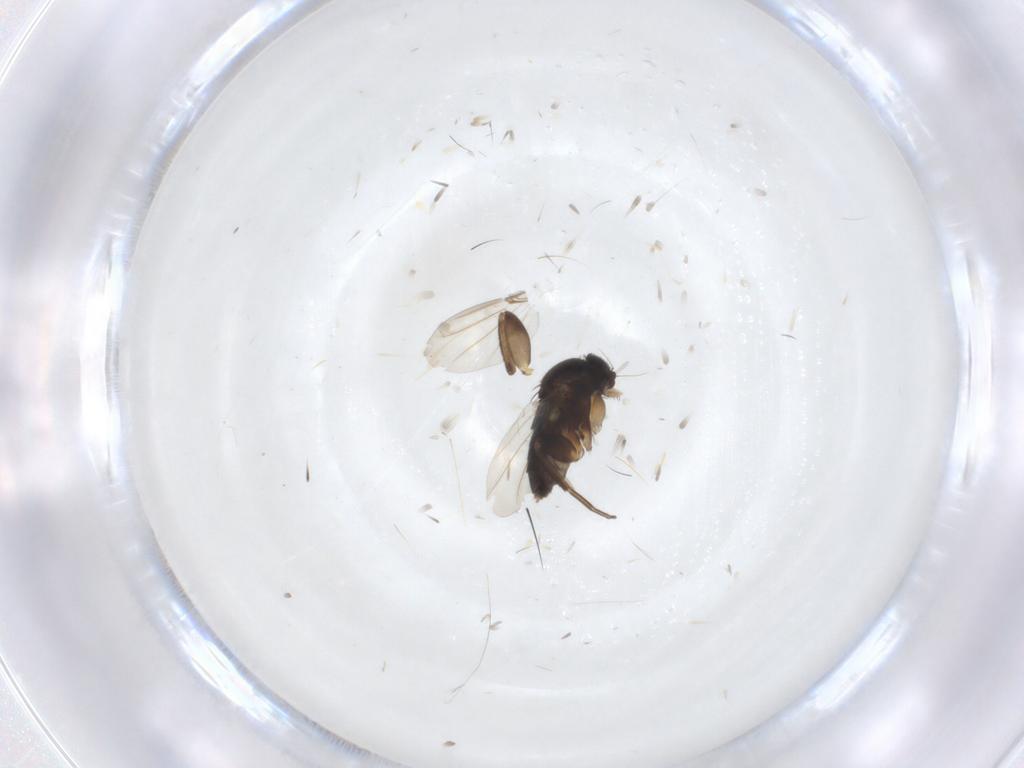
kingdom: Animalia
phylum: Arthropoda
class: Insecta
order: Diptera
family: Phoridae
